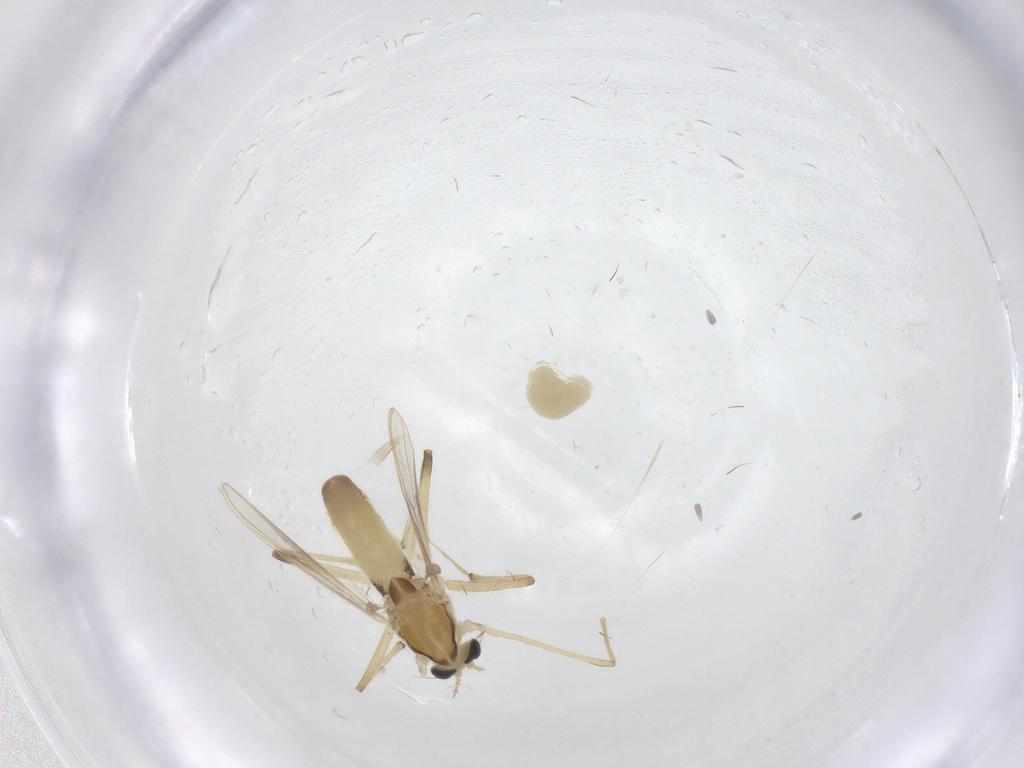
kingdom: Animalia
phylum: Arthropoda
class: Insecta
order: Diptera
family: Chironomidae
